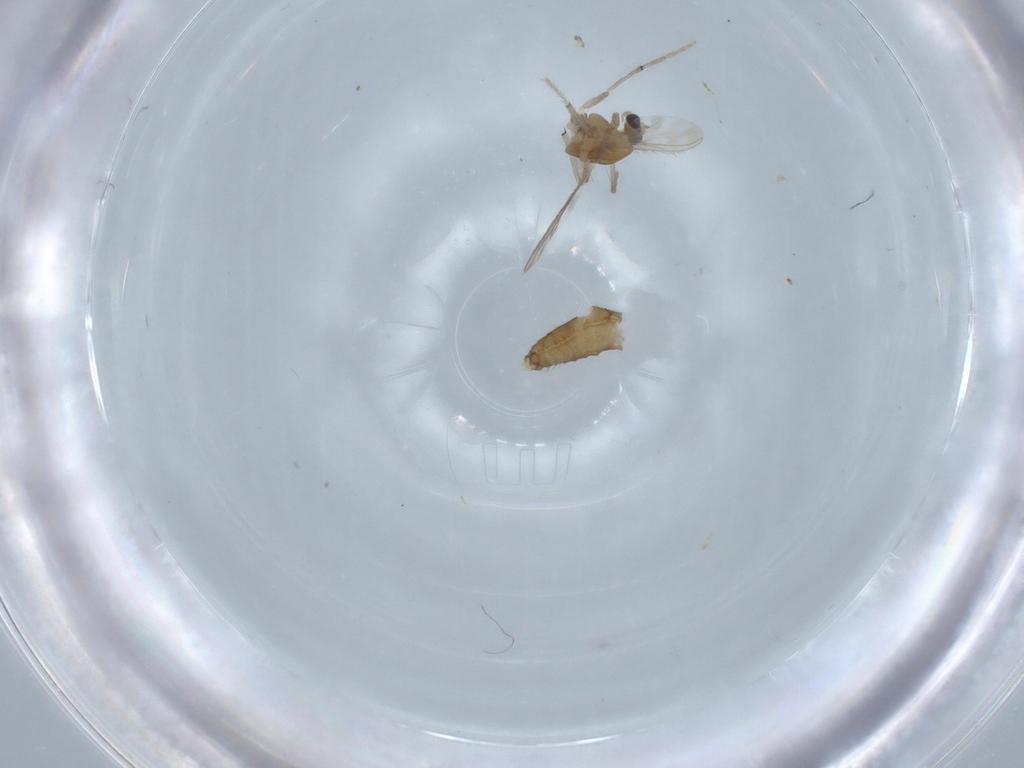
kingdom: Animalia
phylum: Arthropoda
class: Insecta
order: Diptera
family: Chironomidae
